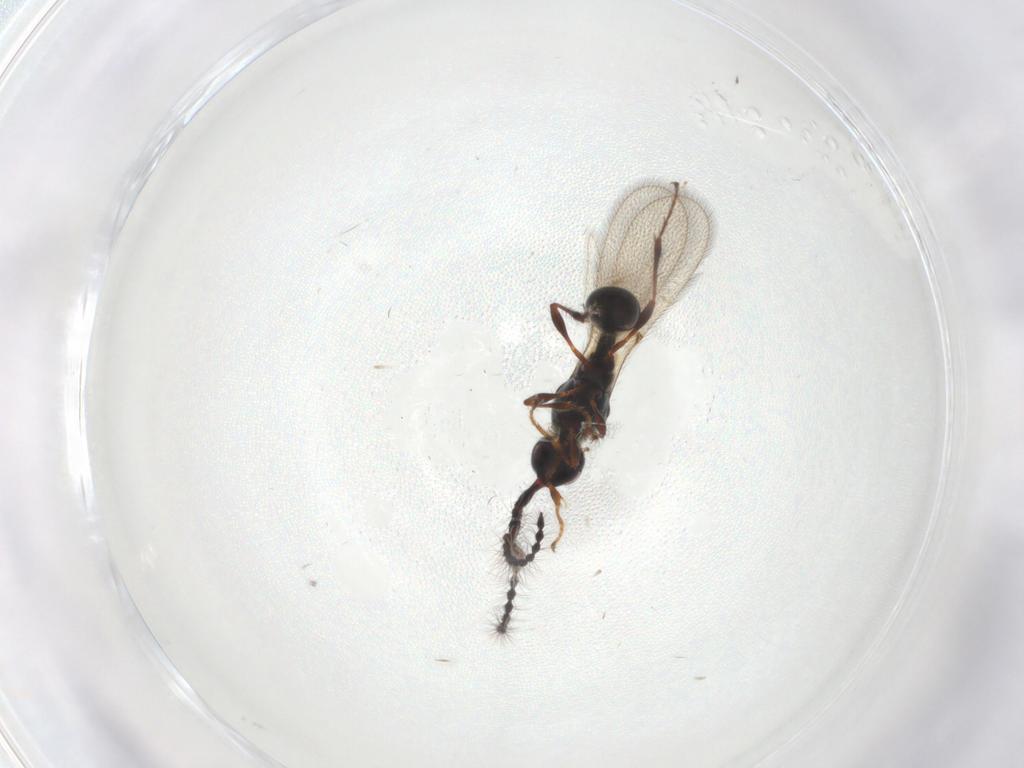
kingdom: Animalia
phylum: Arthropoda
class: Insecta
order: Hymenoptera
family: Diapriidae
